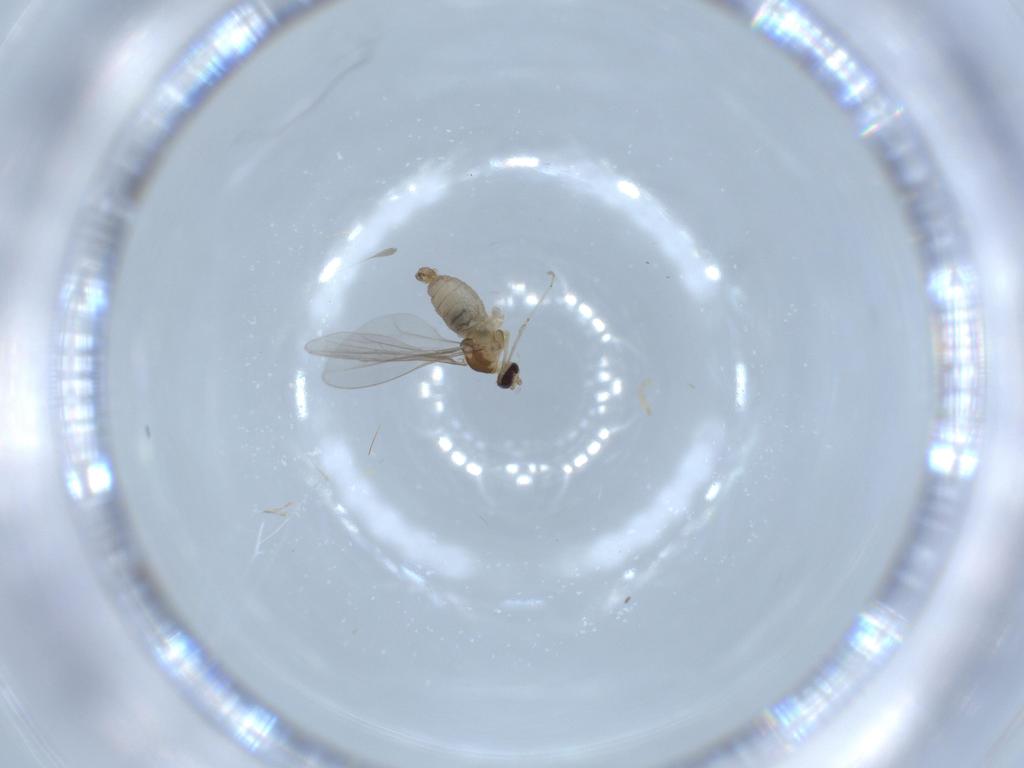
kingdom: Animalia
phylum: Arthropoda
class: Insecta
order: Diptera
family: Cecidomyiidae
